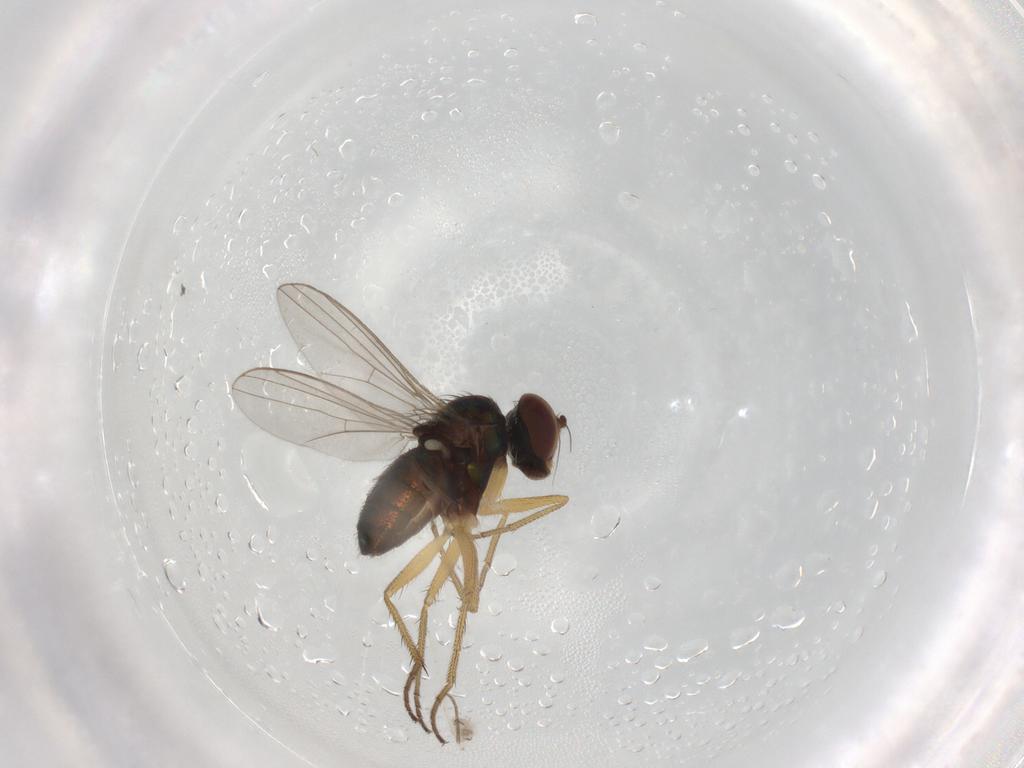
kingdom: Animalia
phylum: Arthropoda
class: Insecta
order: Diptera
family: Dolichopodidae
